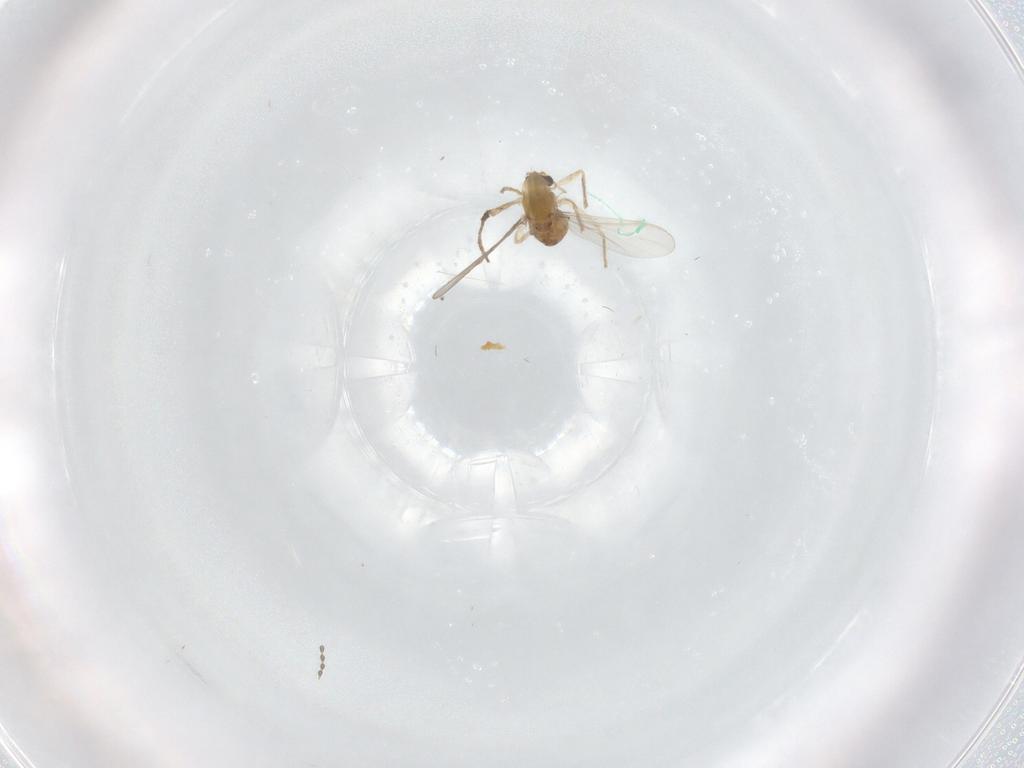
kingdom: Animalia
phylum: Arthropoda
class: Insecta
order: Diptera
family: Chironomidae
